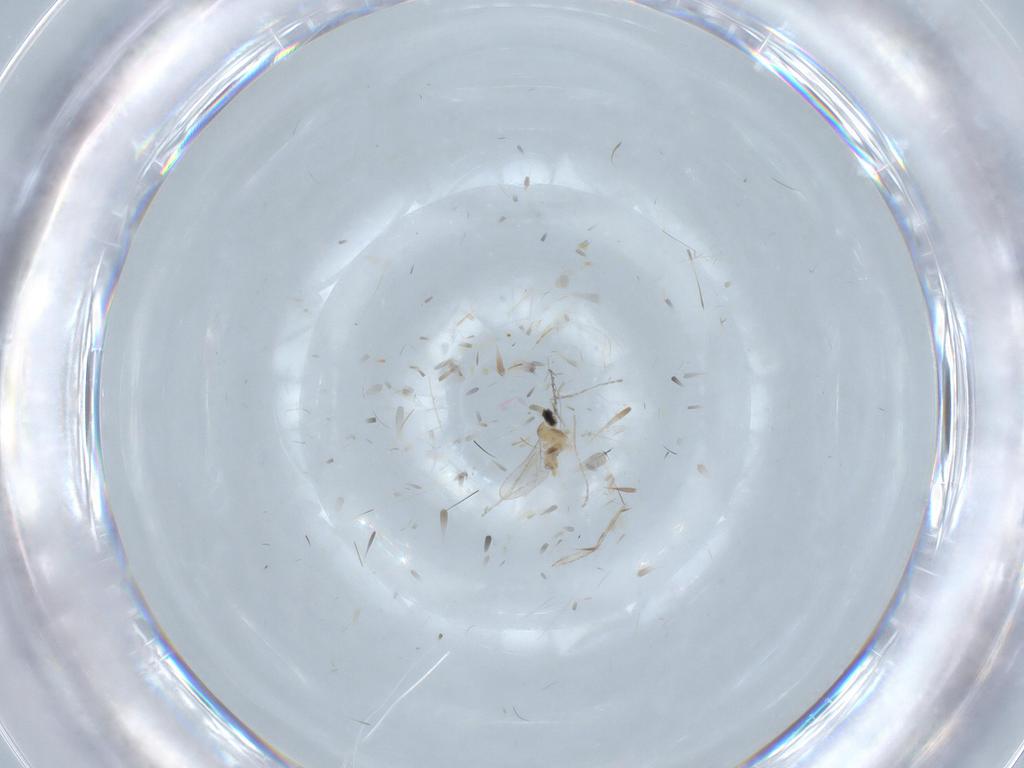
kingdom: Animalia
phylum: Arthropoda
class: Insecta
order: Diptera
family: Cecidomyiidae
